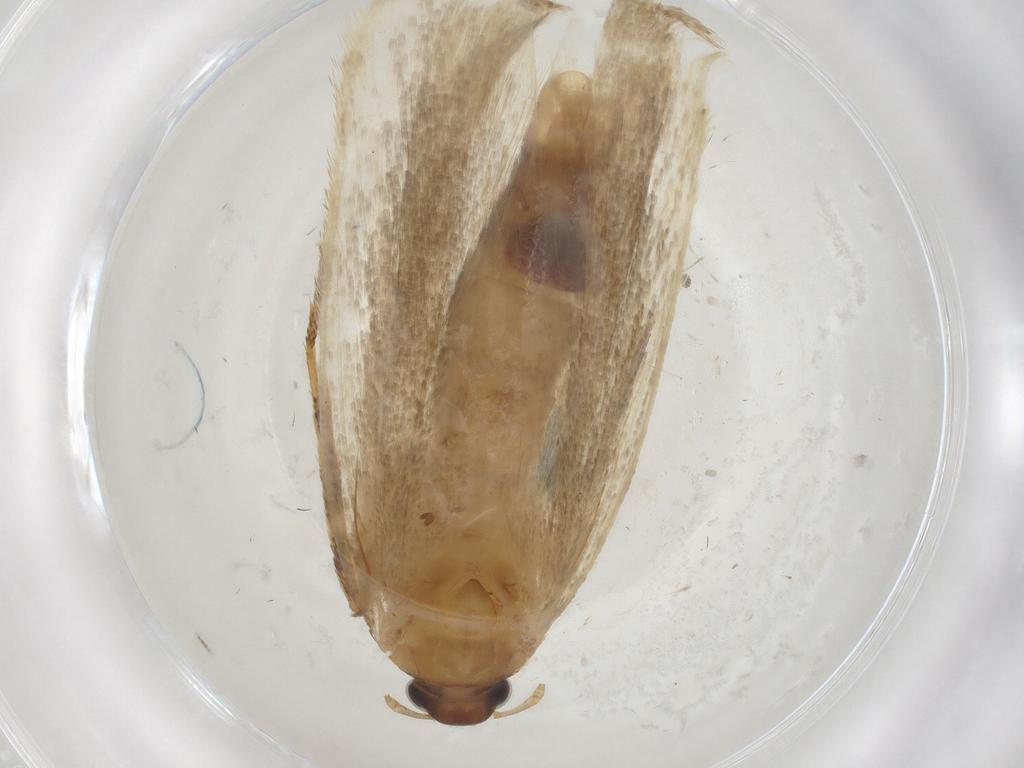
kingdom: Animalia
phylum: Arthropoda
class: Insecta
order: Lepidoptera
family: Gelechiidae
